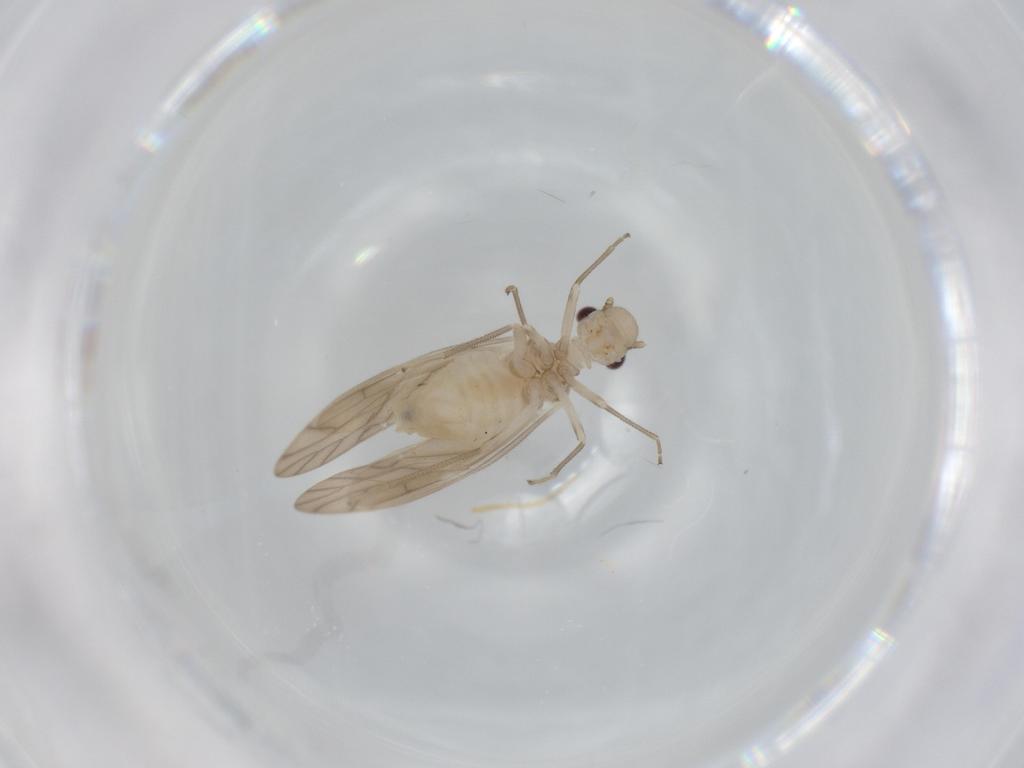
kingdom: Animalia
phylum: Arthropoda
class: Insecta
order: Psocodea
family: Caeciliusidae
